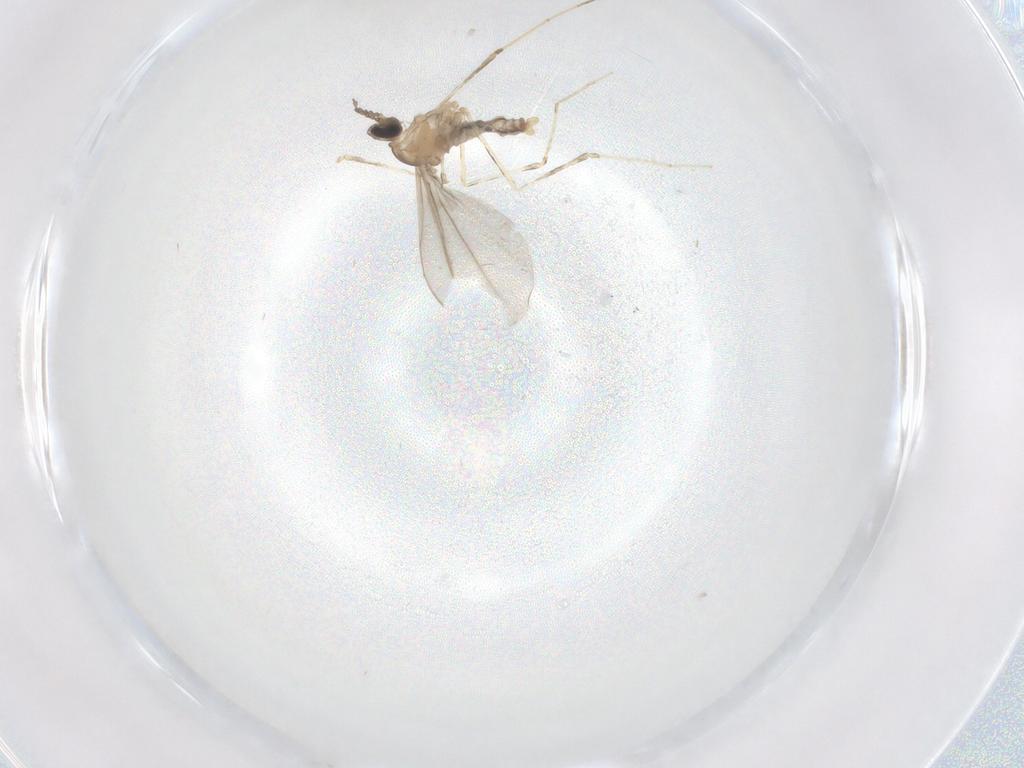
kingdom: Animalia
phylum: Arthropoda
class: Insecta
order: Diptera
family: Cecidomyiidae
